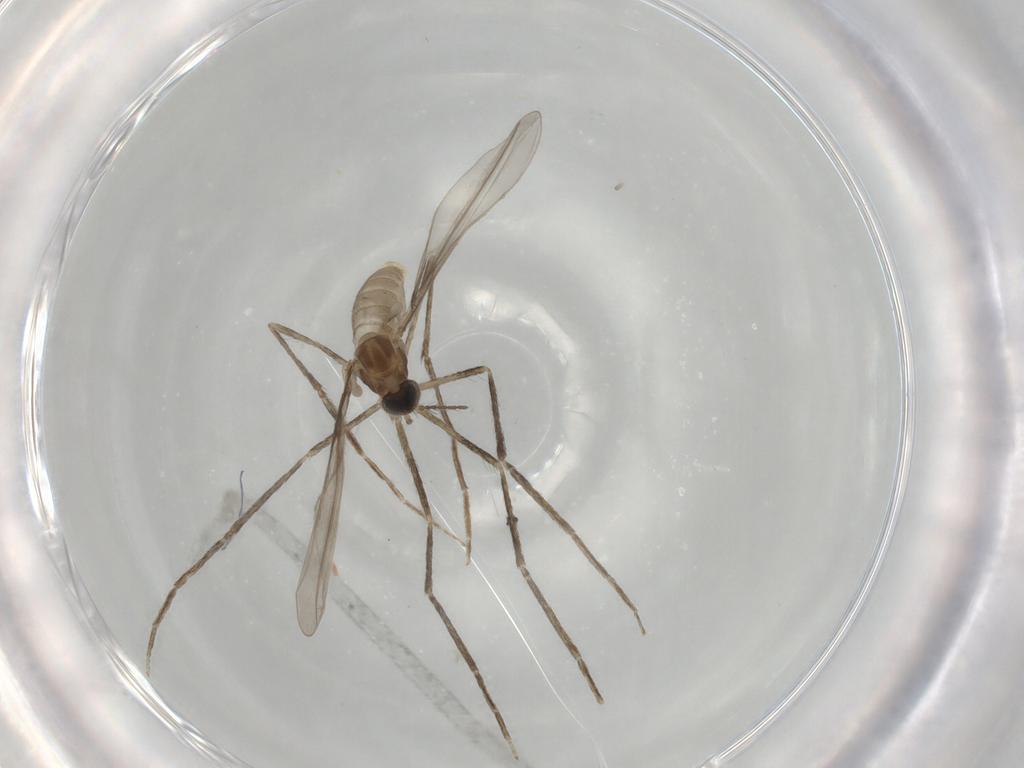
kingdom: Animalia
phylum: Arthropoda
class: Insecta
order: Diptera
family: Cecidomyiidae
